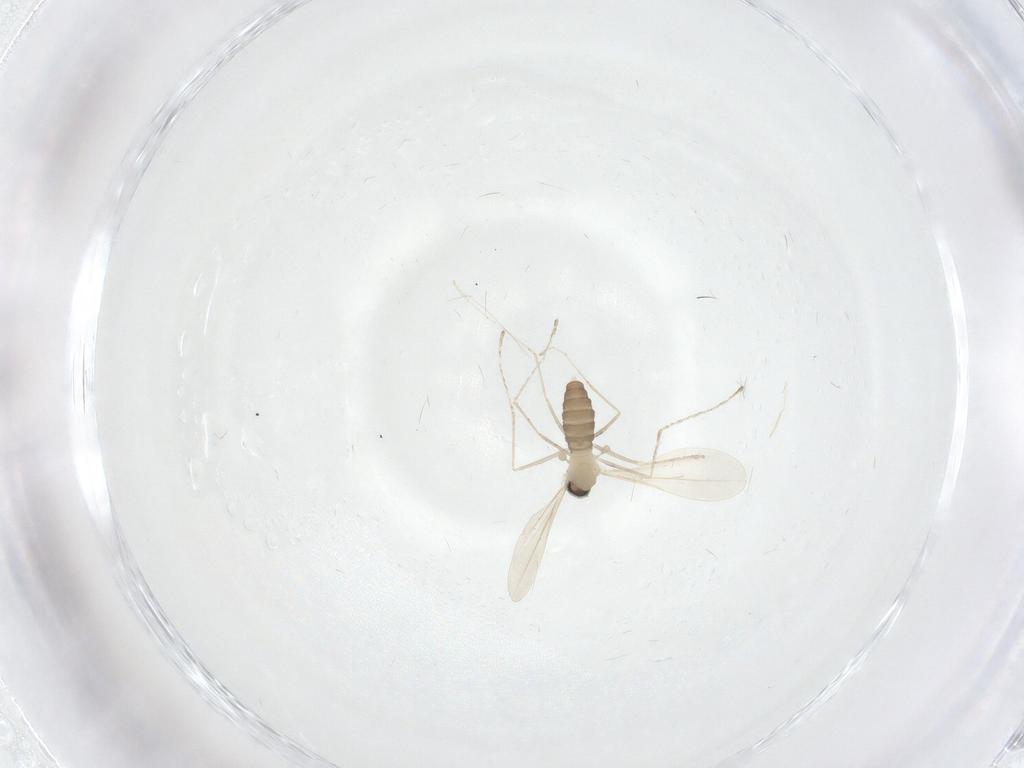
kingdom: Animalia
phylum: Arthropoda
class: Insecta
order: Diptera
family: Cecidomyiidae
